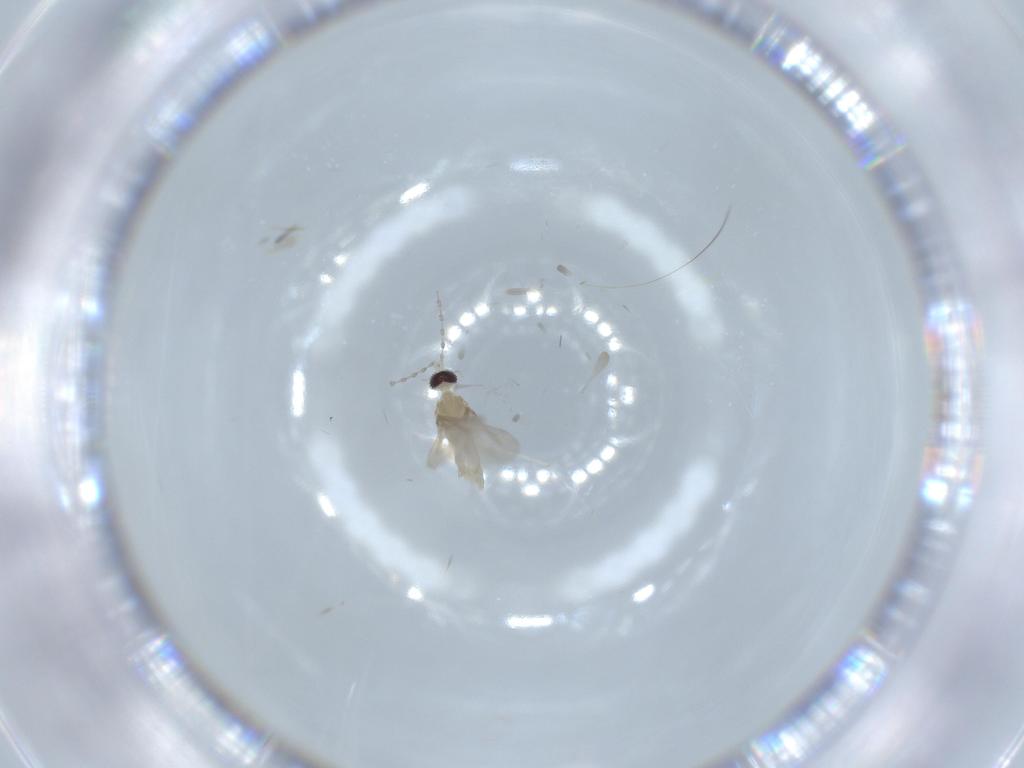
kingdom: Animalia
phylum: Arthropoda
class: Insecta
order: Diptera
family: Cecidomyiidae
